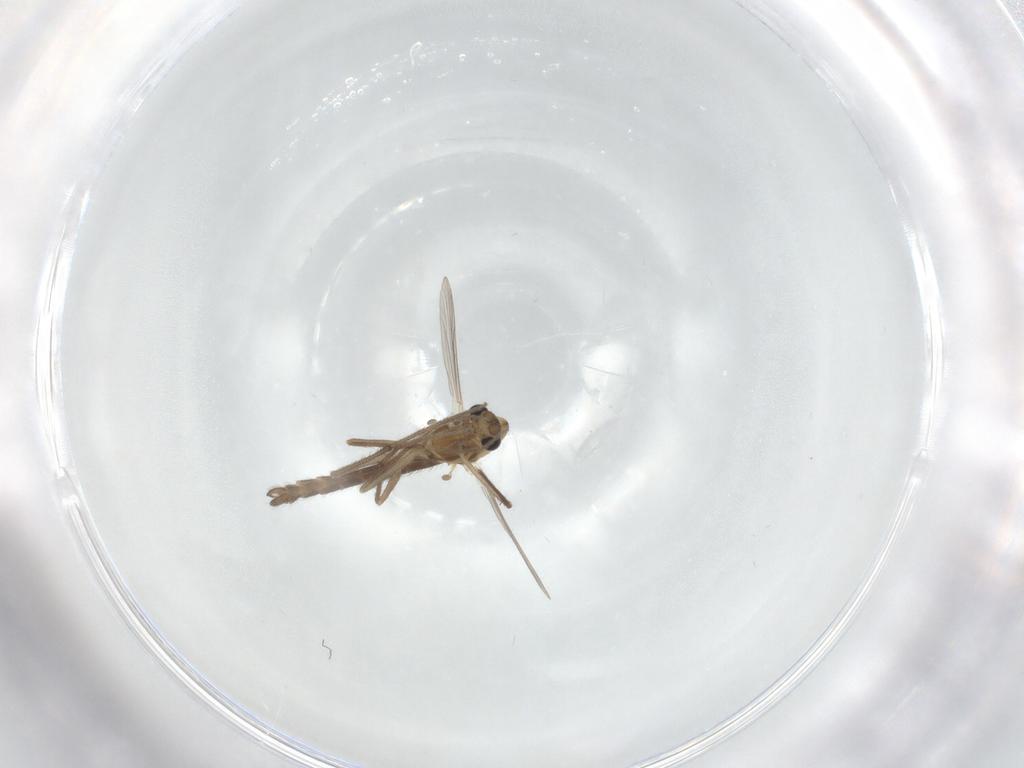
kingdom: Animalia
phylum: Arthropoda
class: Insecta
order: Diptera
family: Chironomidae
